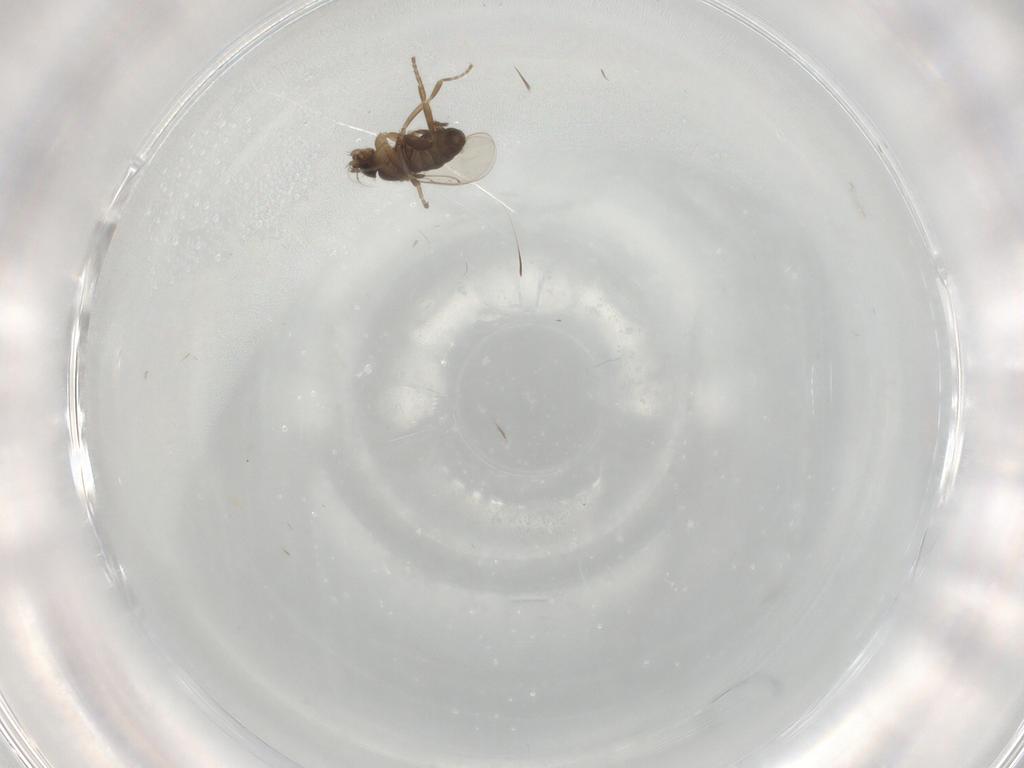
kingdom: Animalia
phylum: Arthropoda
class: Insecta
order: Diptera
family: Phoridae
